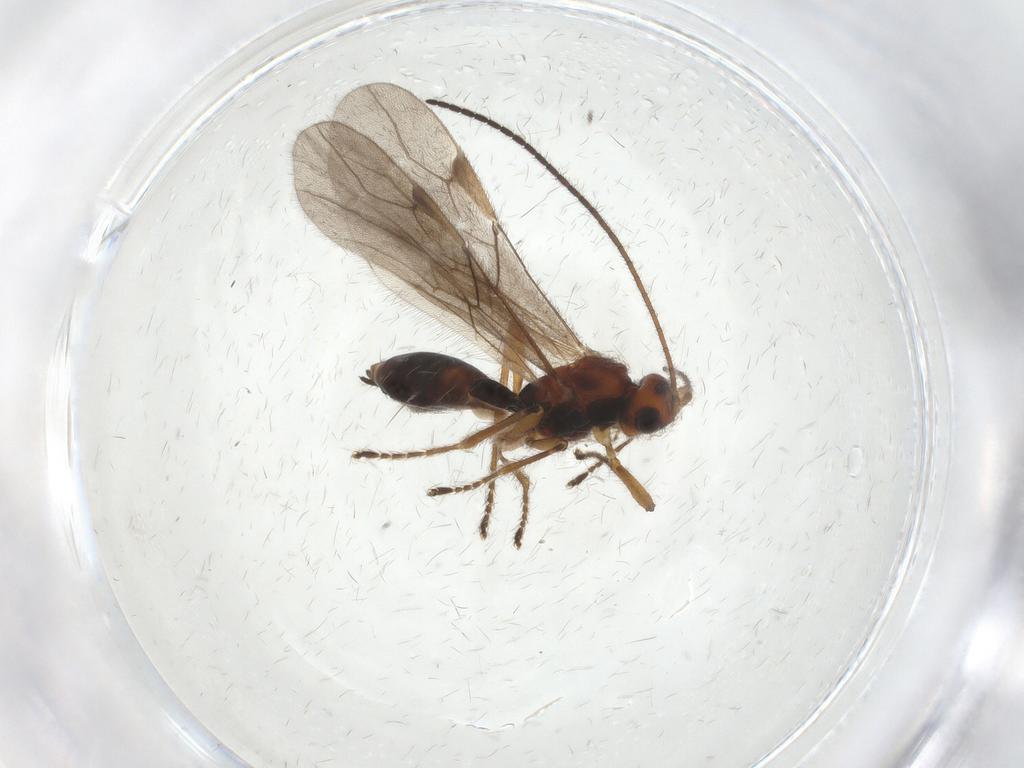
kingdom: Animalia
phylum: Arthropoda
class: Insecta
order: Hymenoptera
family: Braconidae
